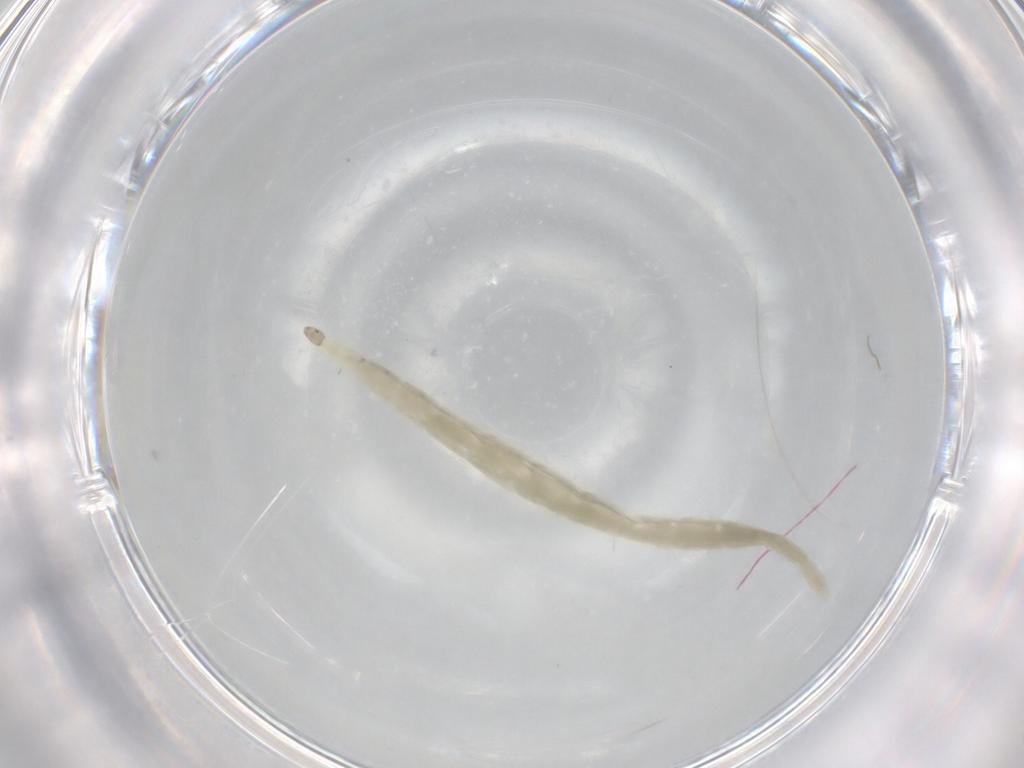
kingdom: Animalia
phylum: Arthropoda
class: Insecta
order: Diptera
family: Ceratopogonidae
